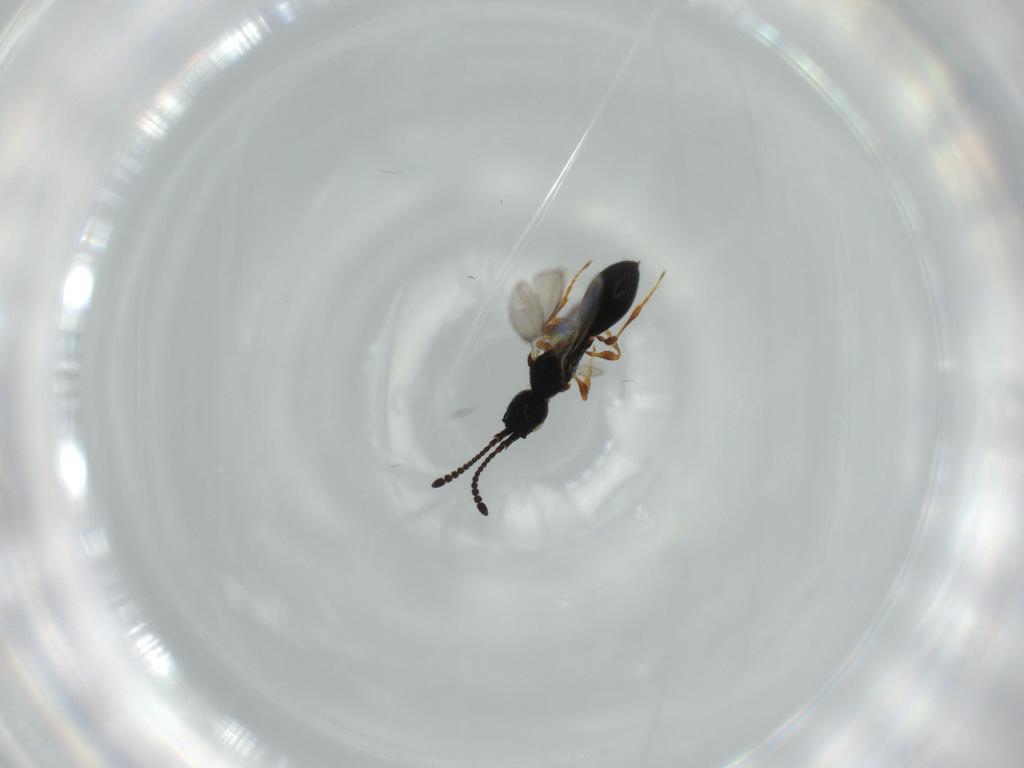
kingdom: Animalia
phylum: Arthropoda
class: Insecta
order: Hymenoptera
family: Diapriidae
